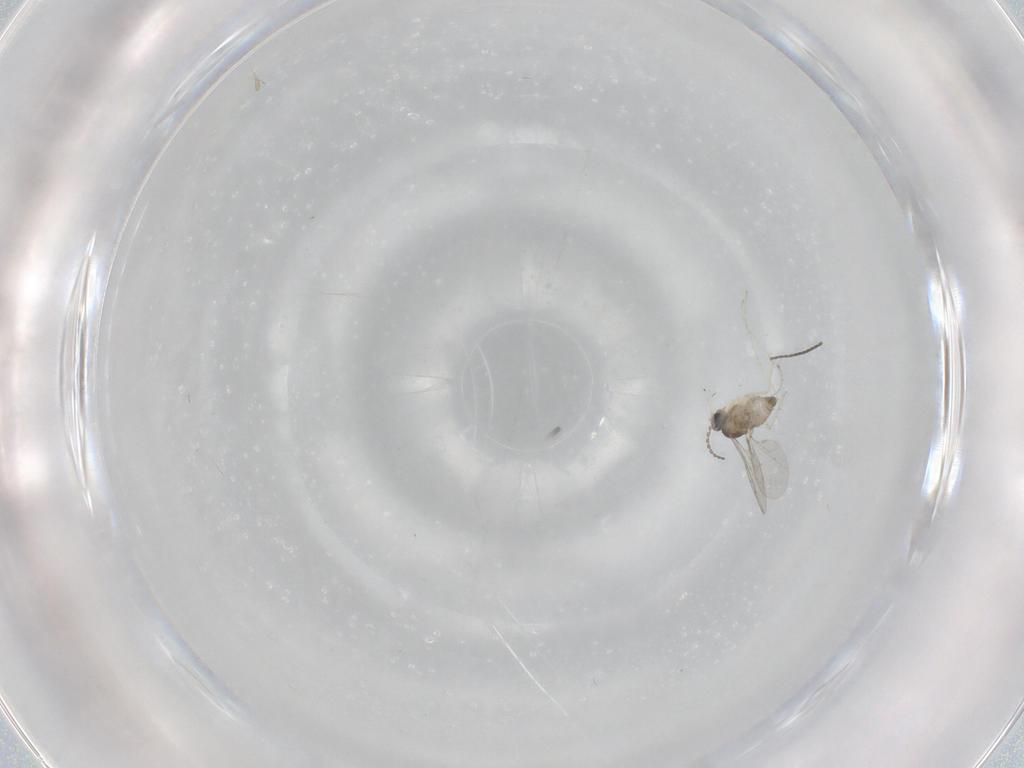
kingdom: Animalia
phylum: Arthropoda
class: Insecta
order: Diptera
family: Cecidomyiidae
